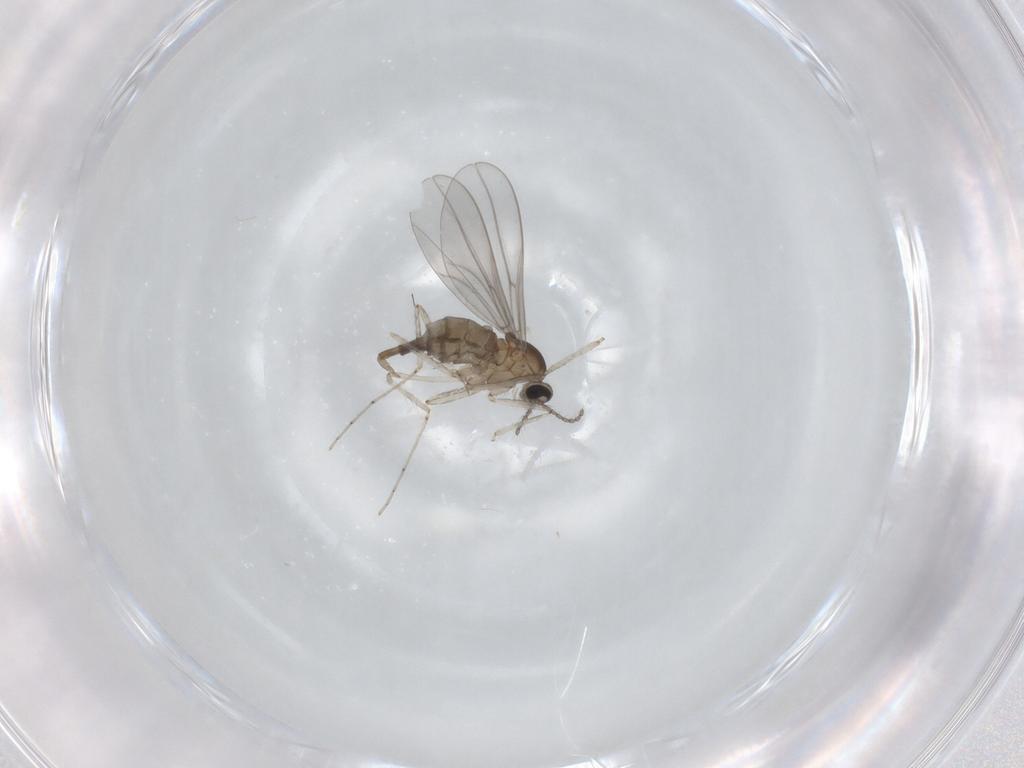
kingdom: Animalia
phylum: Arthropoda
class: Insecta
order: Diptera
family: Cecidomyiidae
